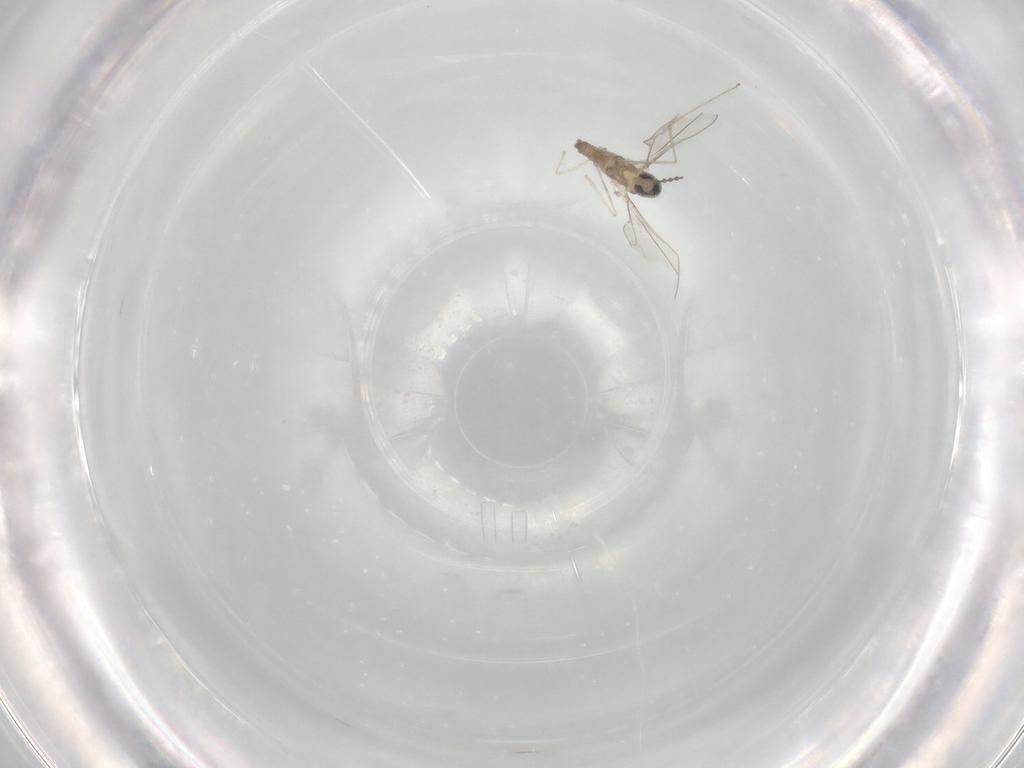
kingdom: Animalia
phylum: Arthropoda
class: Insecta
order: Diptera
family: Cecidomyiidae
